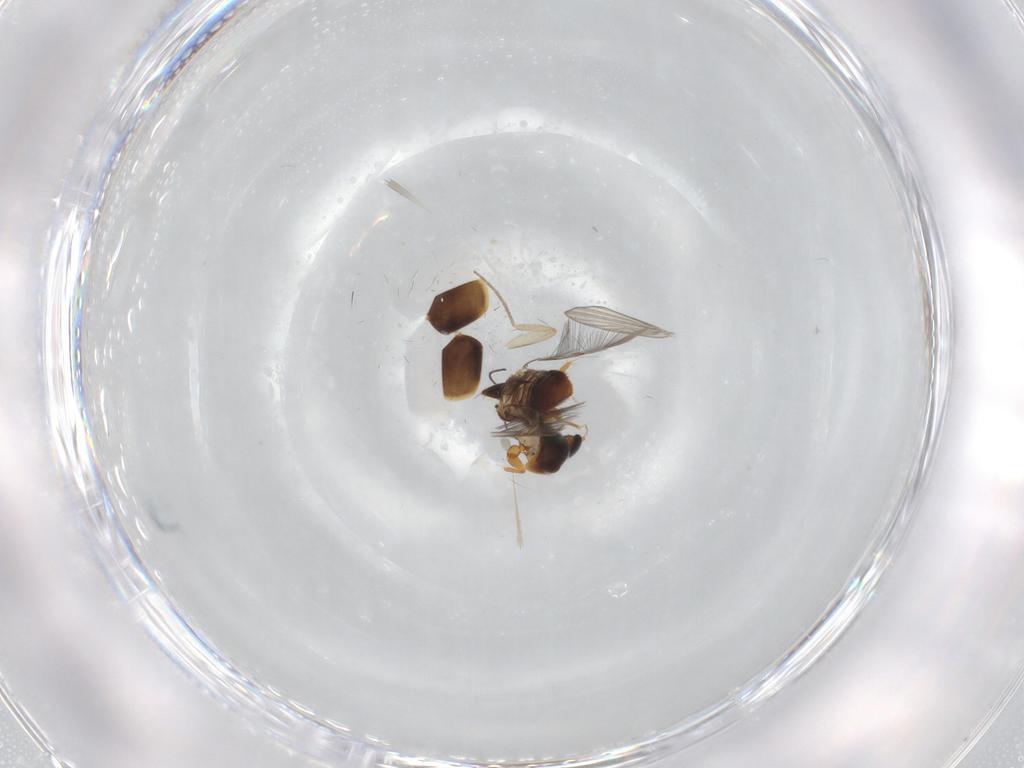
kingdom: Animalia
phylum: Arthropoda
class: Insecta
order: Coleoptera
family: Ptiliidae
